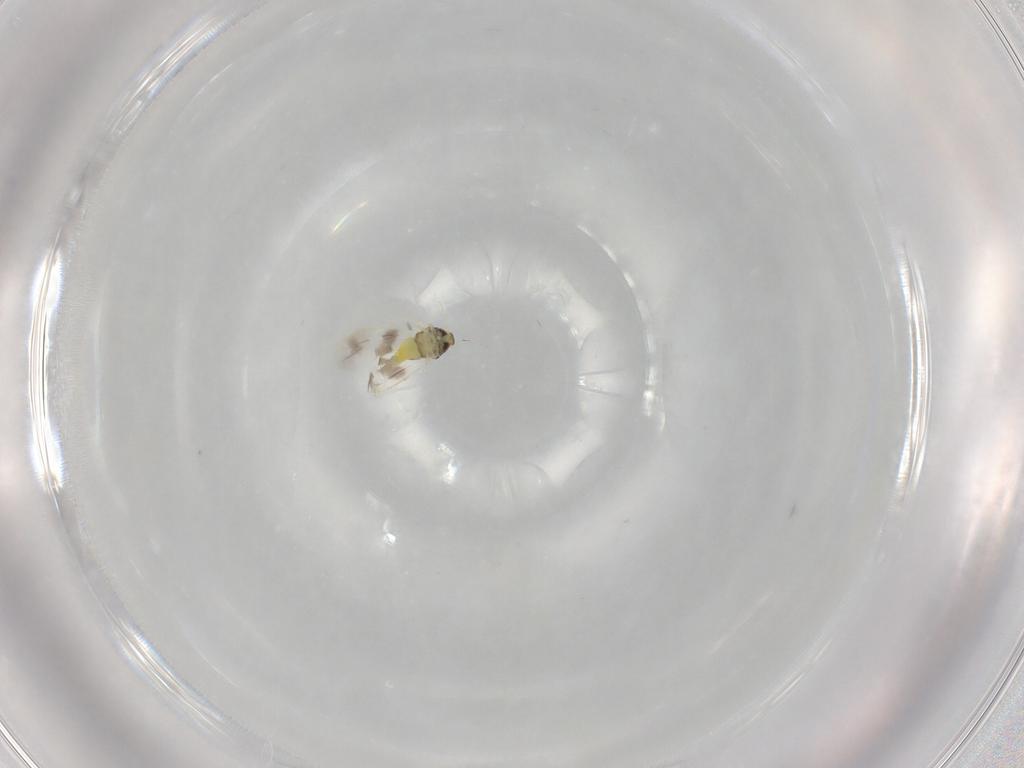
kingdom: Animalia
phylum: Arthropoda
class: Insecta
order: Hemiptera
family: Aleyrodidae
